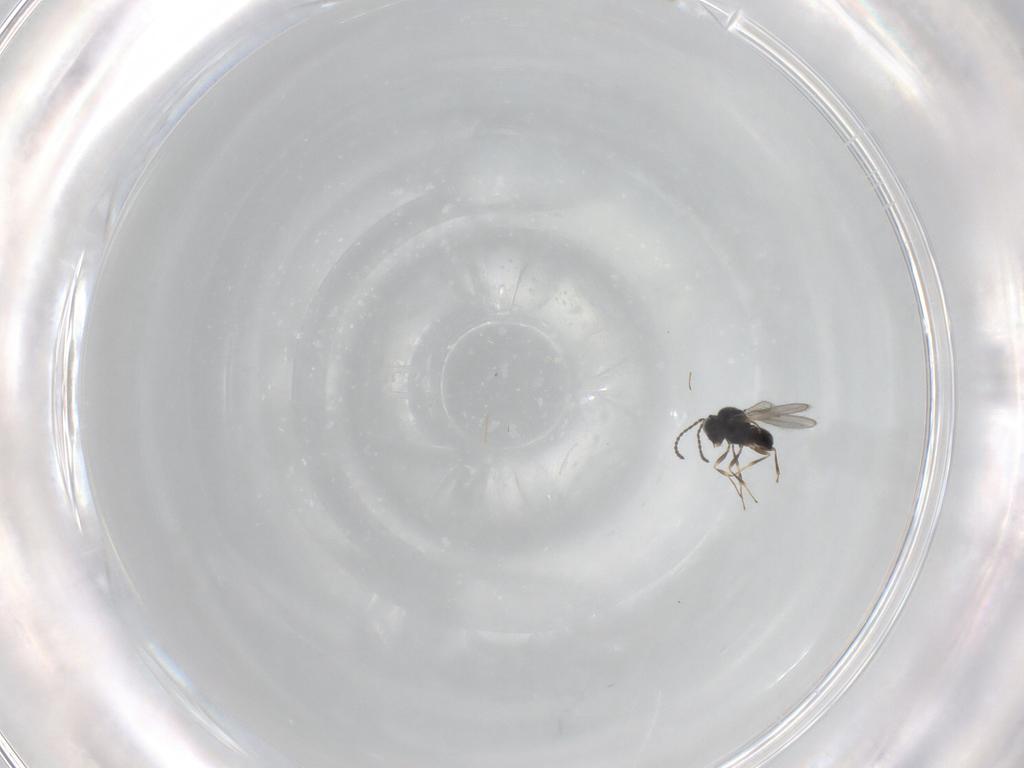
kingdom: Animalia
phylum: Arthropoda
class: Insecta
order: Hymenoptera
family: Scelionidae
